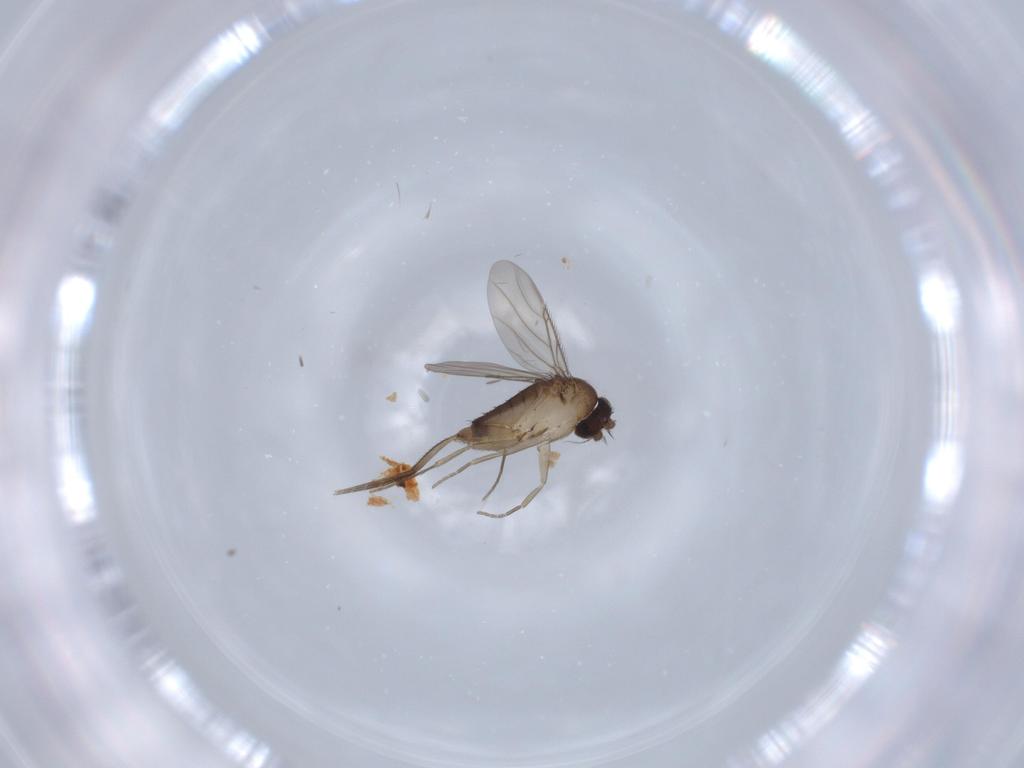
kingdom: Animalia
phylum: Arthropoda
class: Insecta
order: Diptera
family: Phoridae
